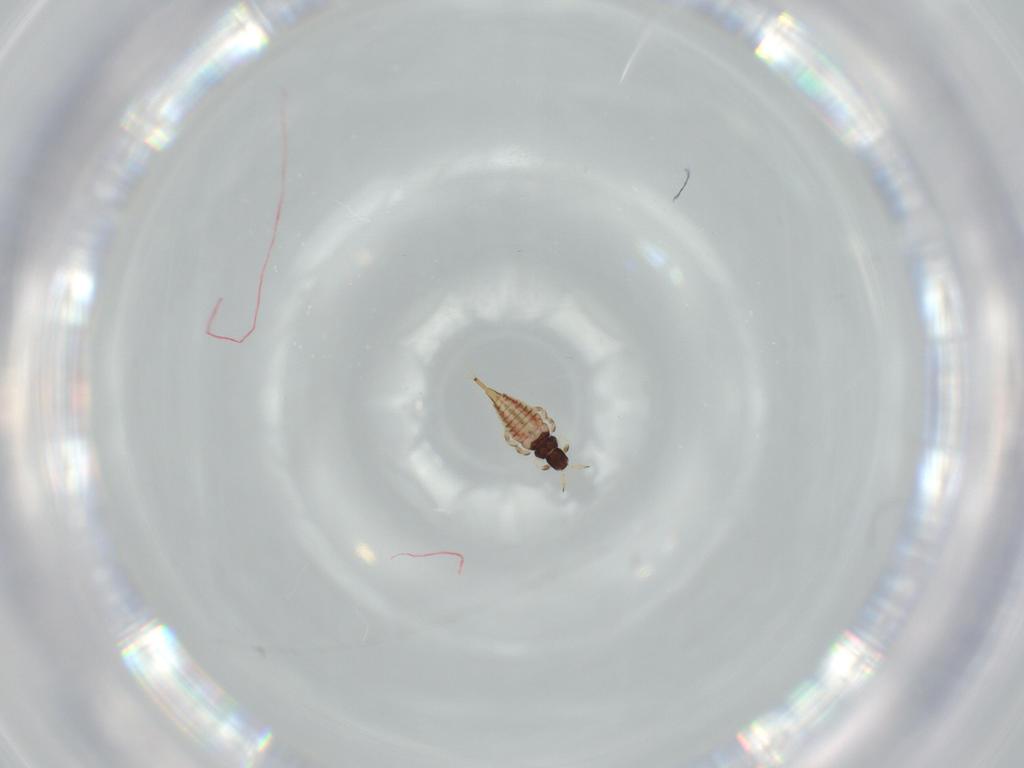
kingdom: Animalia
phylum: Arthropoda
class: Insecta
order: Thysanoptera
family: Phlaeothripidae
